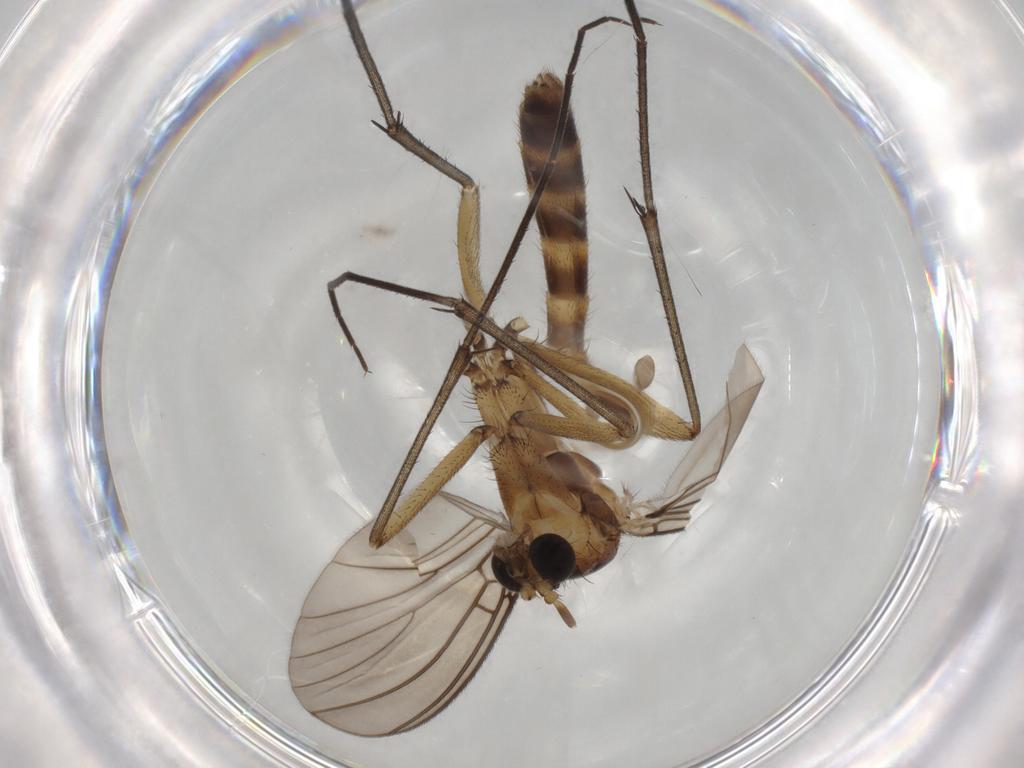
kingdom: Animalia
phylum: Arthropoda
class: Insecta
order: Diptera
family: Mycetophilidae
